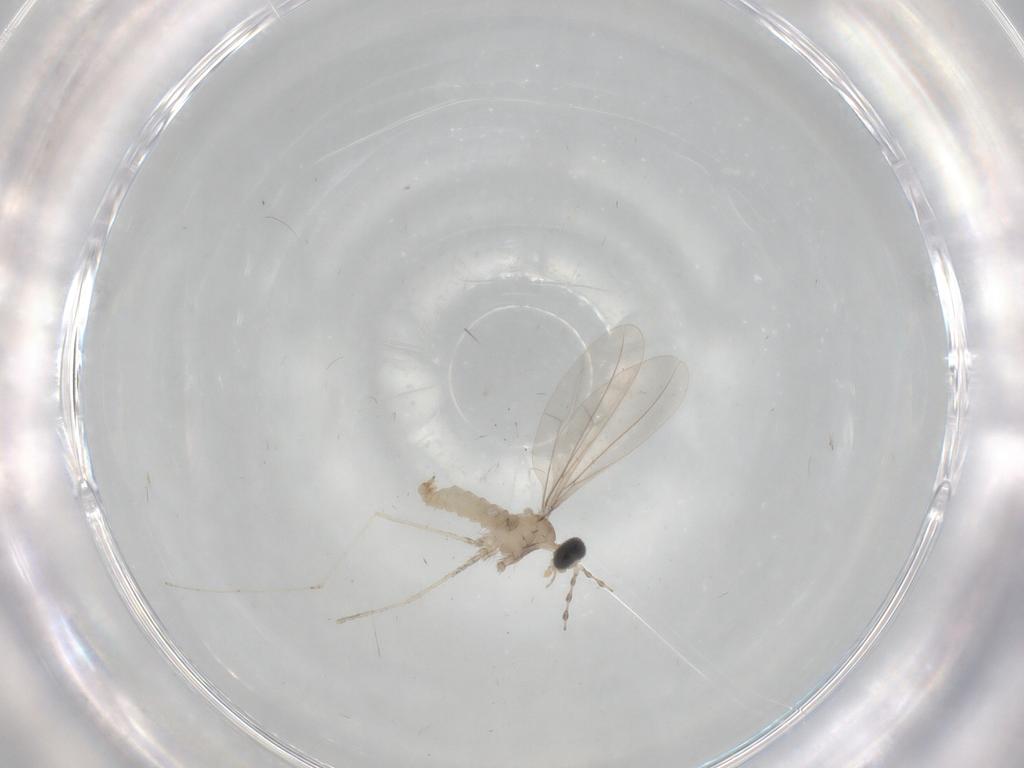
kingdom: Animalia
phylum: Arthropoda
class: Insecta
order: Diptera
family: Cecidomyiidae
